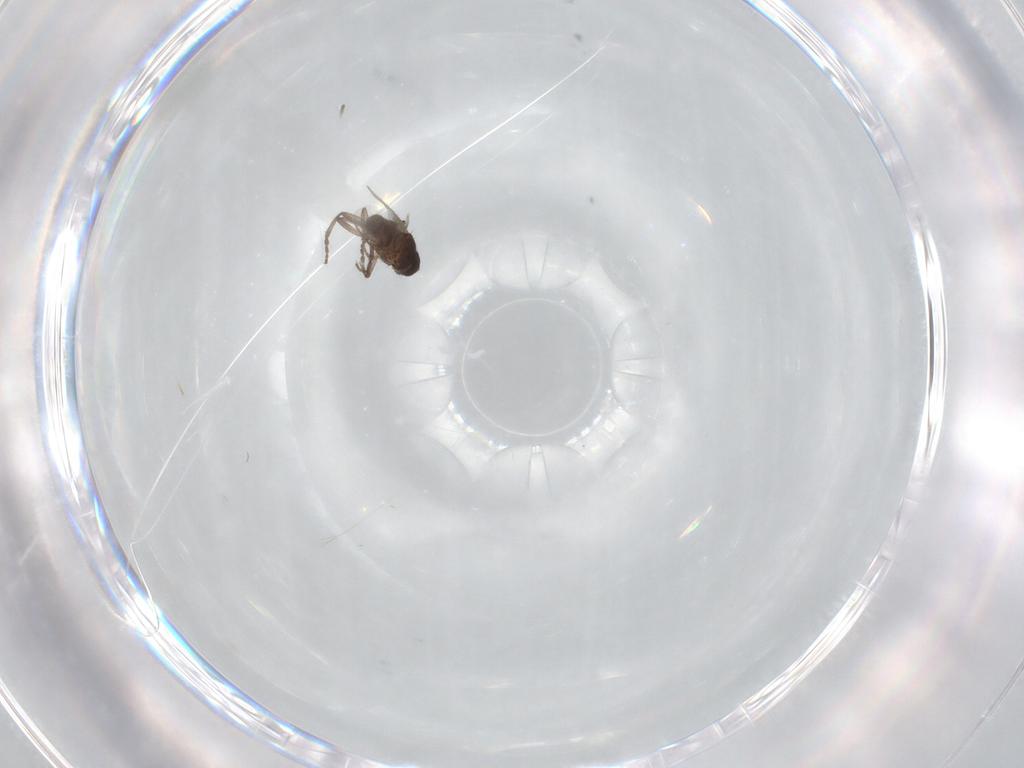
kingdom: Animalia
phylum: Arthropoda
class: Insecta
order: Diptera
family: Sphaeroceridae
